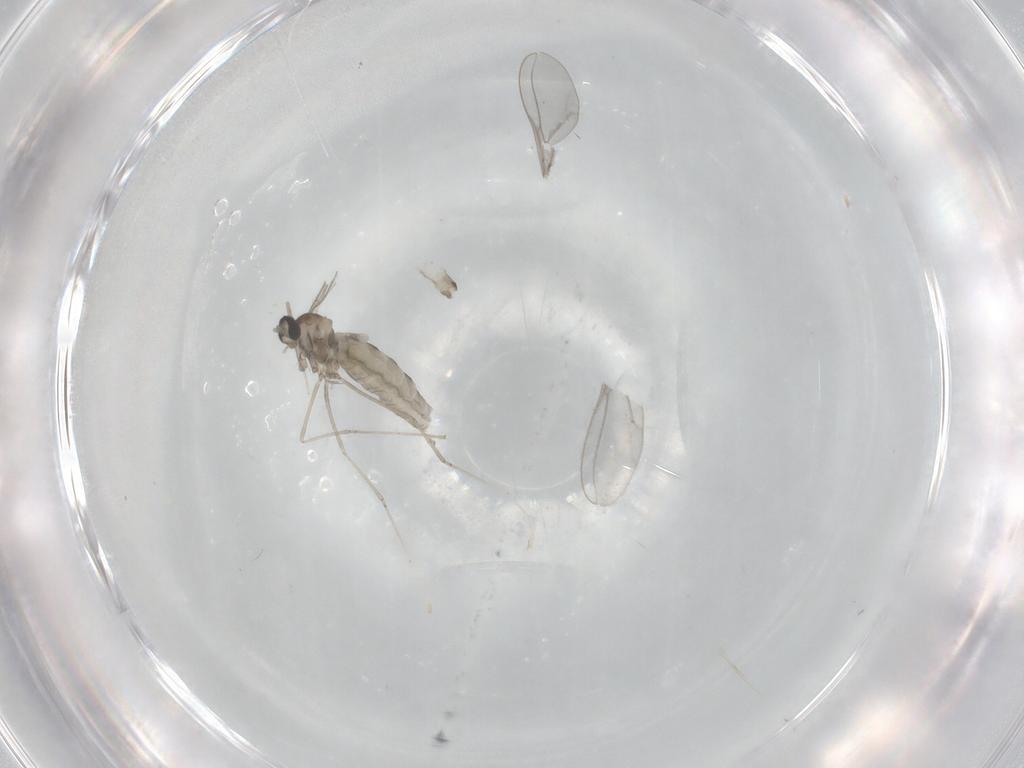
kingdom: Animalia
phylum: Arthropoda
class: Insecta
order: Diptera
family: Cecidomyiidae
